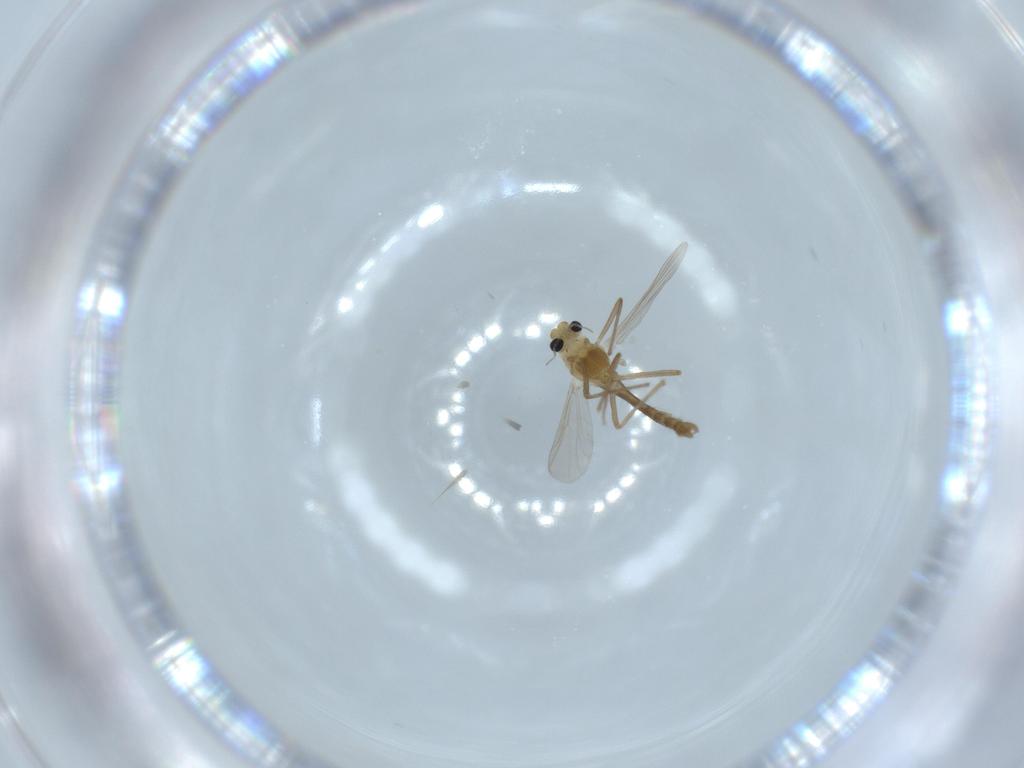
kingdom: Animalia
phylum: Arthropoda
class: Insecta
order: Diptera
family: Chironomidae
